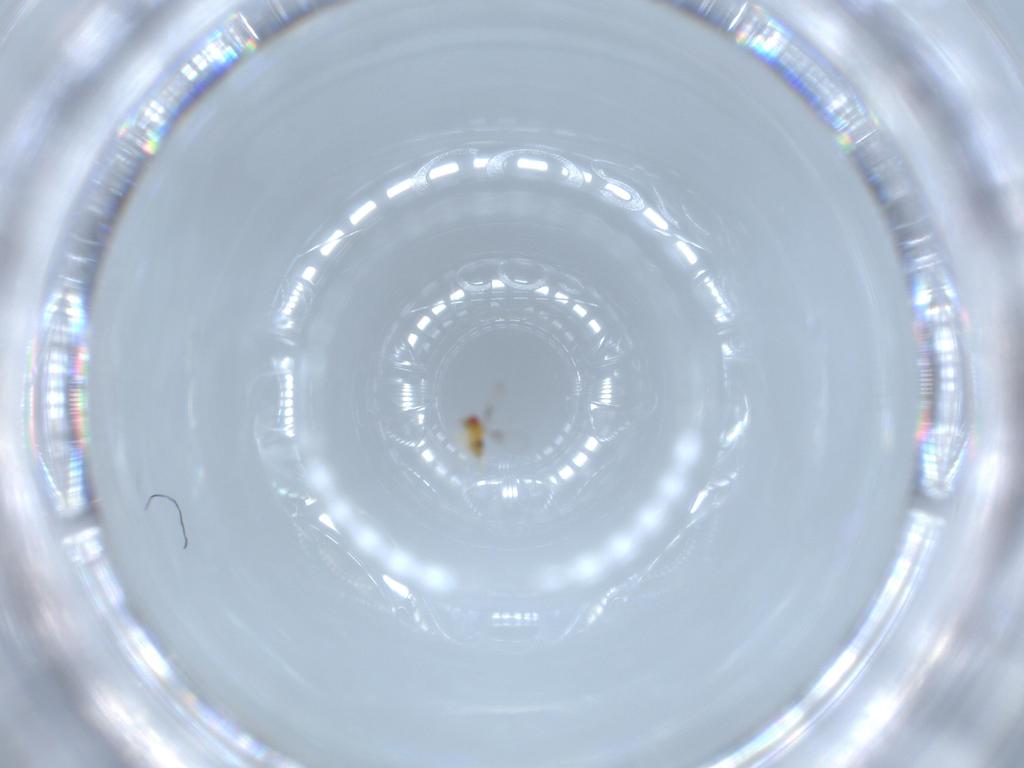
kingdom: Animalia
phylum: Arthropoda
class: Insecta
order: Hymenoptera
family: Trichogrammatidae
